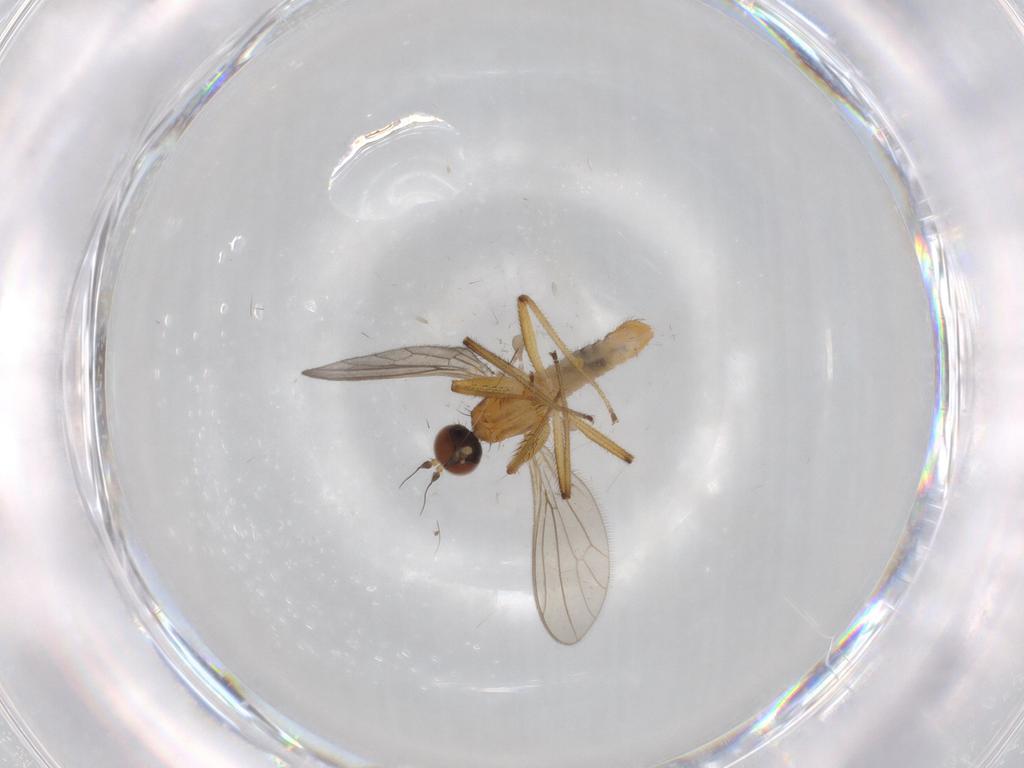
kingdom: Animalia
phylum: Arthropoda
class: Insecta
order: Diptera
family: Empididae
